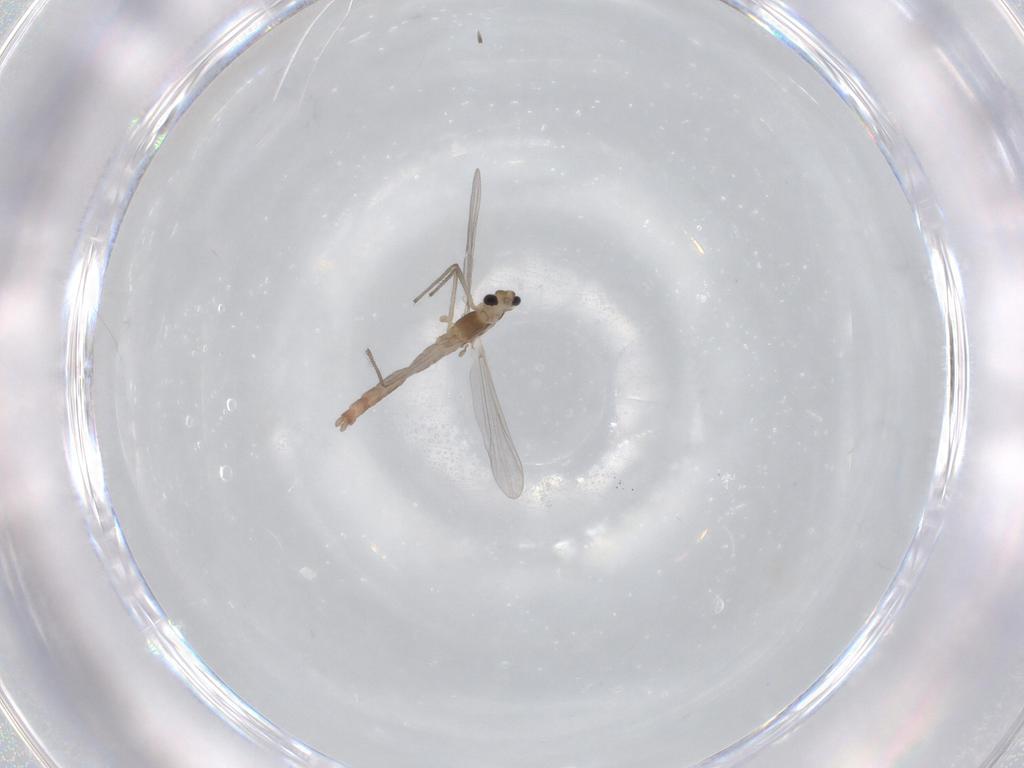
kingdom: Animalia
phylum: Arthropoda
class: Insecta
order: Diptera
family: Chironomidae
